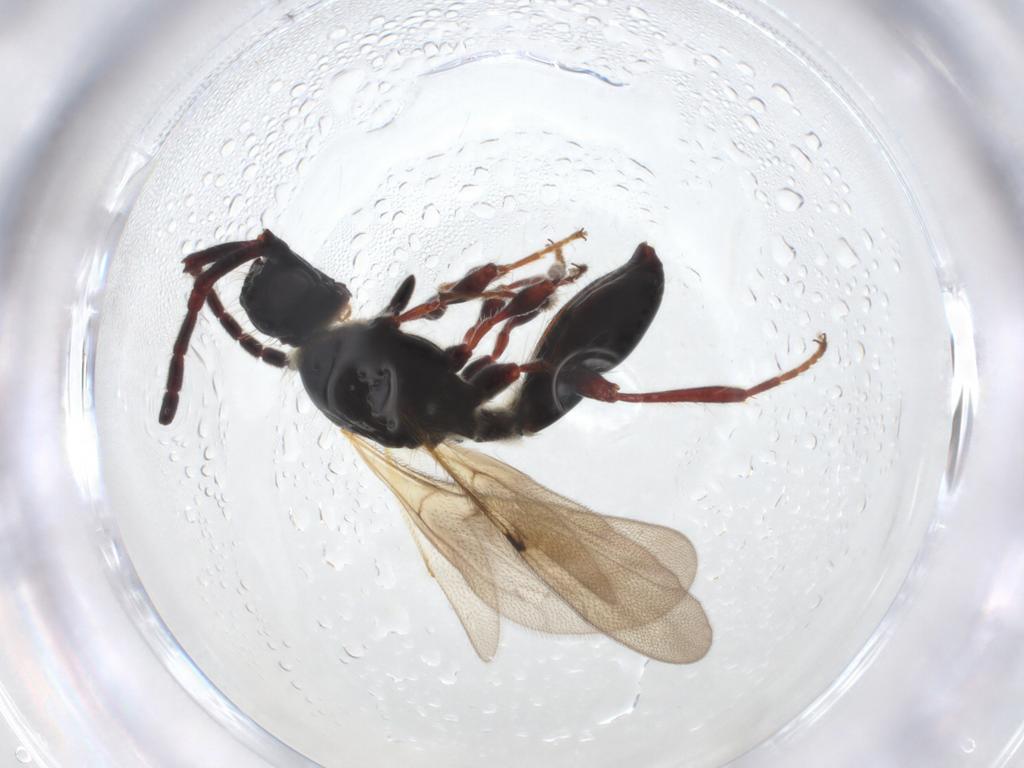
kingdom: Animalia
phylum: Arthropoda
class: Insecta
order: Hymenoptera
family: Diapriidae
